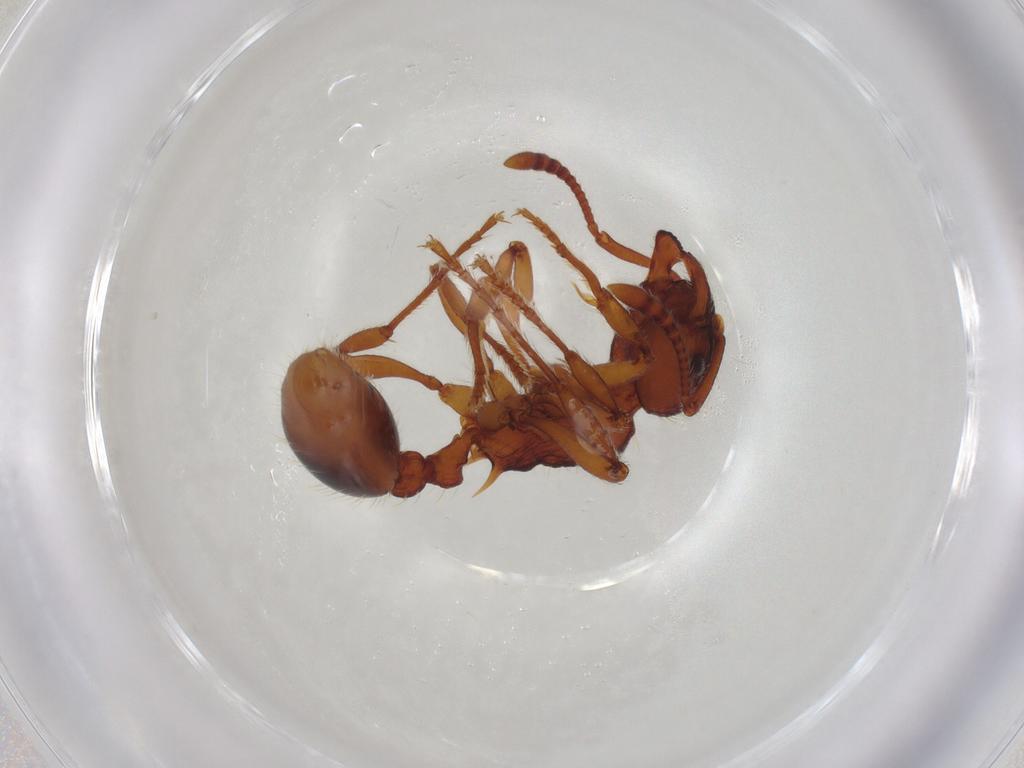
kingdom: Animalia
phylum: Arthropoda
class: Insecta
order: Hymenoptera
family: Formicidae
